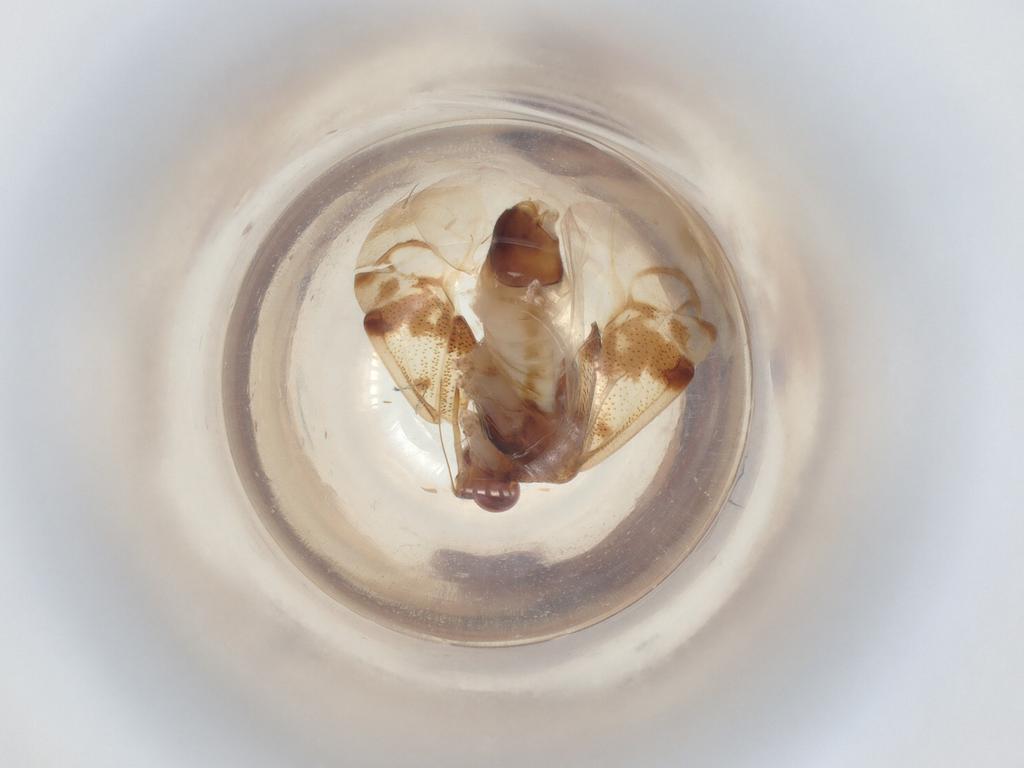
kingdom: Animalia
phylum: Arthropoda
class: Insecta
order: Hemiptera
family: Miridae
